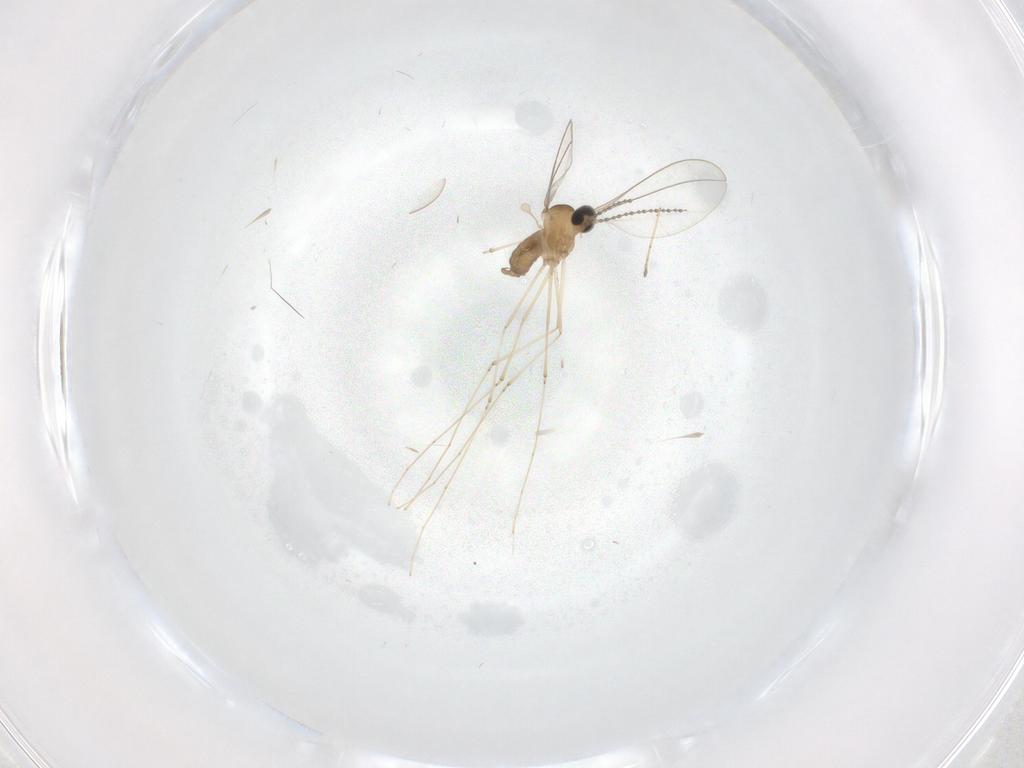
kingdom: Animalia
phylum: Arthropoda
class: Insecta
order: Diptera
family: Cecidomyiidae
